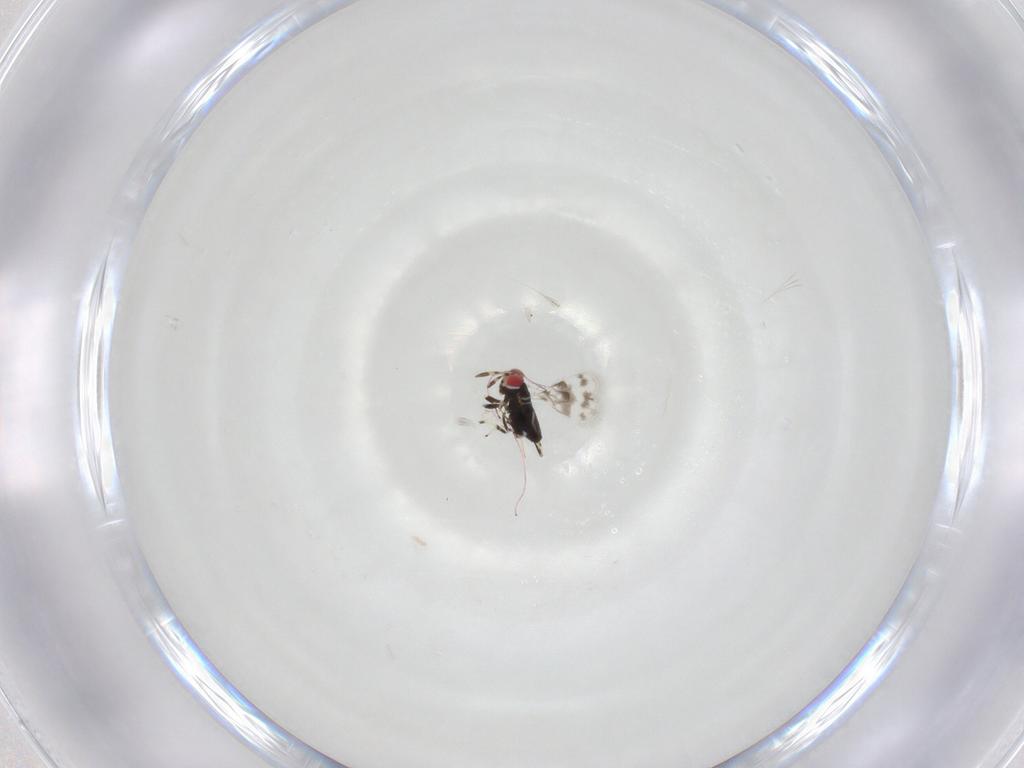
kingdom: Animalia
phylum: Arthropoda
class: Insecta
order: Hymenoptera
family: Braconidae
